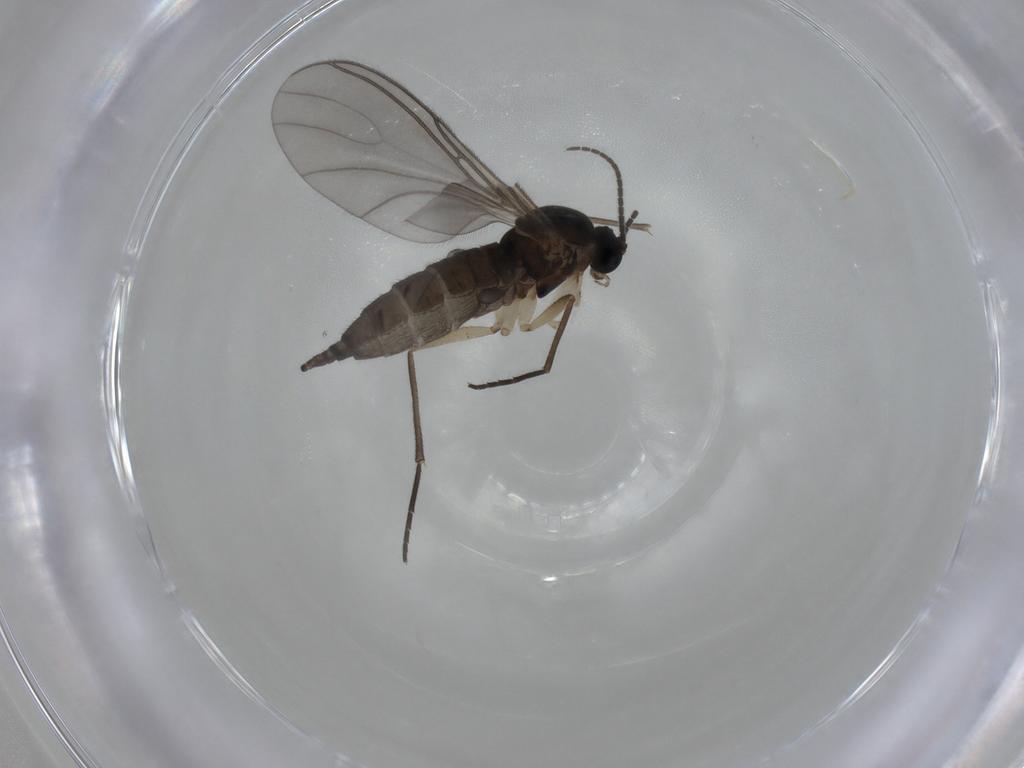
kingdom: Animalia
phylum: Arthropoda
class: Insecta
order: Diptera
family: Sciaridae
